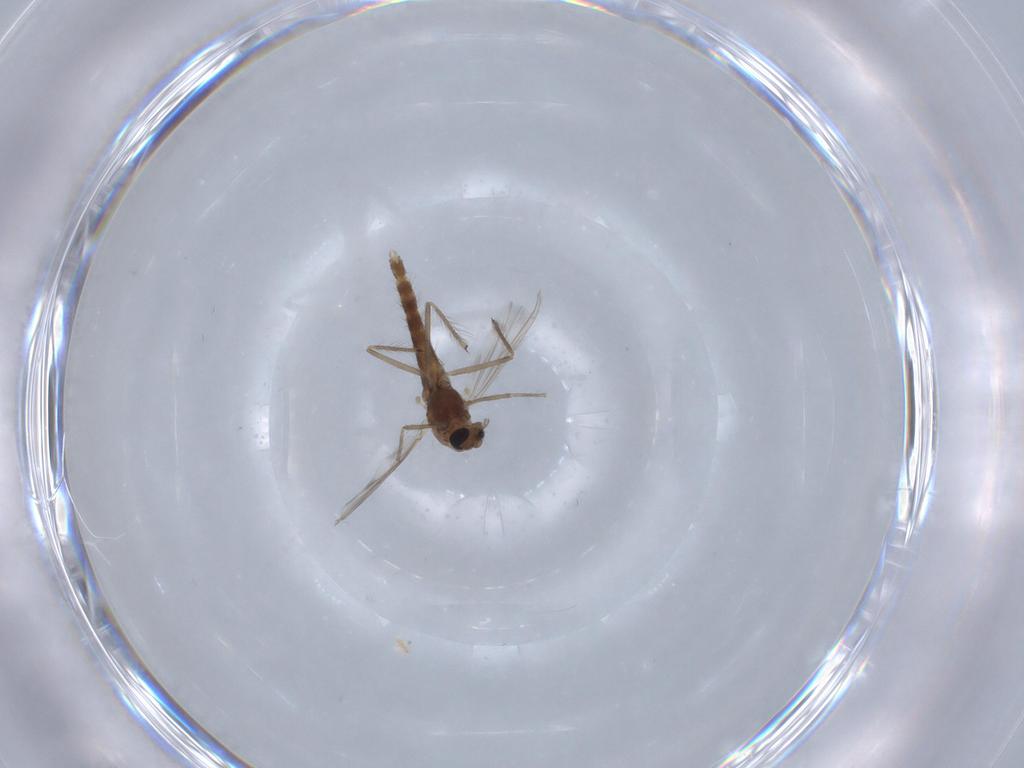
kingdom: Animalia
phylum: Arthropoda
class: Insecta
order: Diptera
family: Chironomidae
